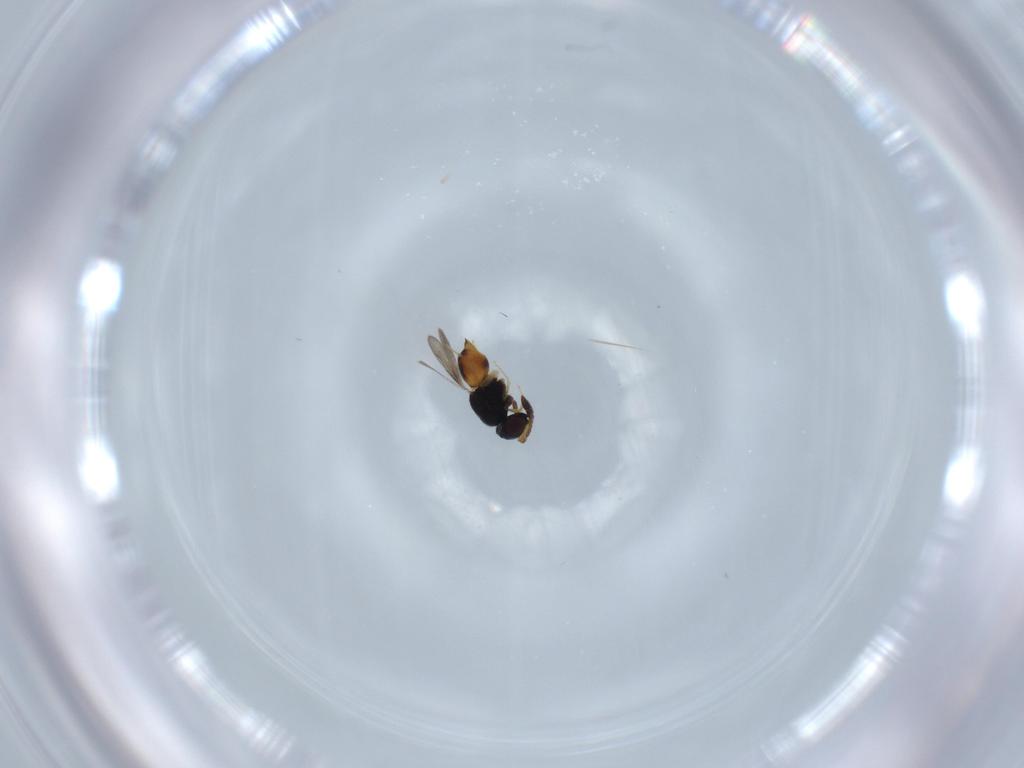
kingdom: Animalia
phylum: Arthropoda
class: Insecta
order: Hymenoptera
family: Ceraphronidae
